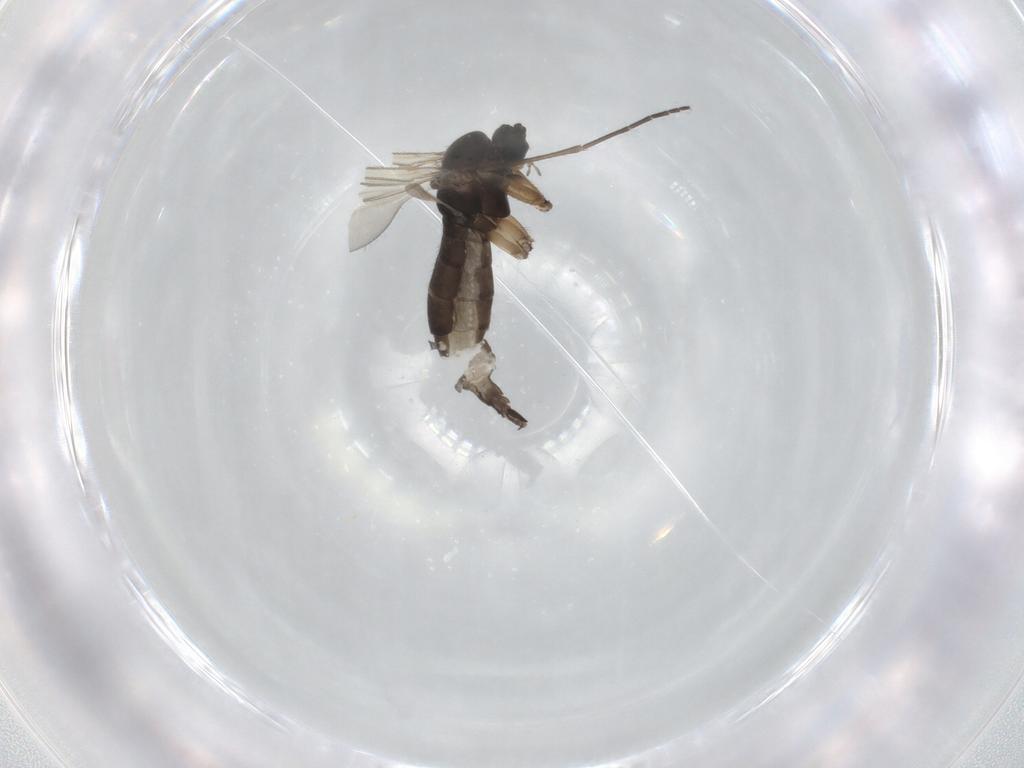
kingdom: Animalia
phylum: Arthropoda
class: Insecta
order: Diptera
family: Sciaridae
